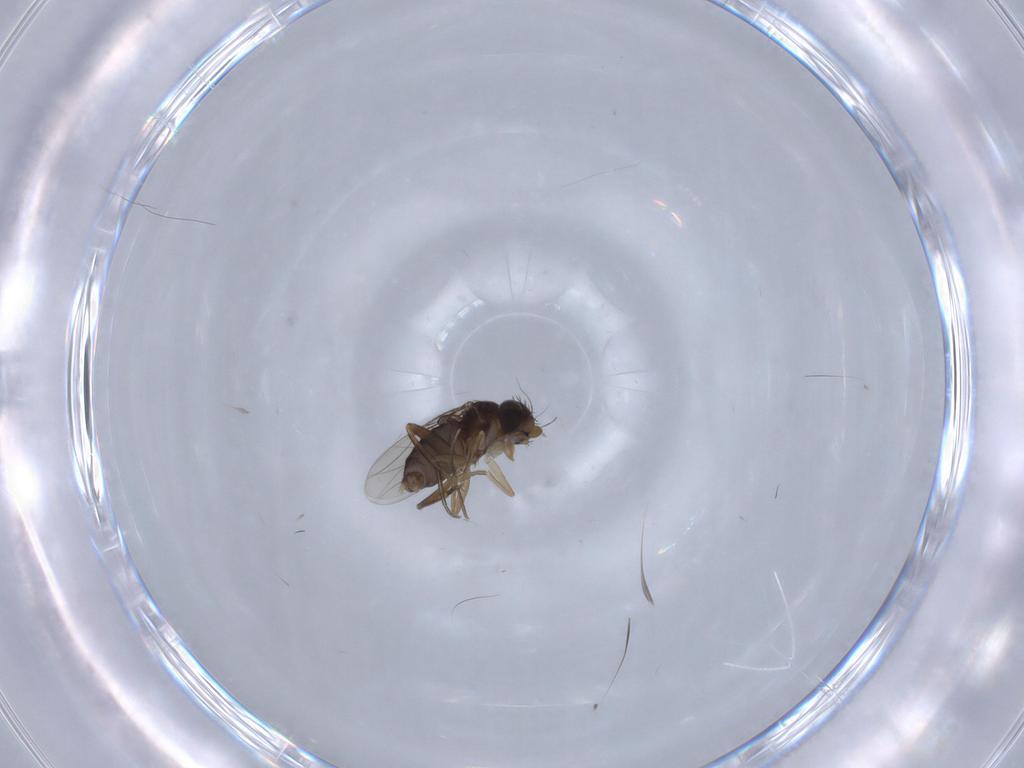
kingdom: Animalia
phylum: Arthropoda
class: Insecta
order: Diptera
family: Phoridae
